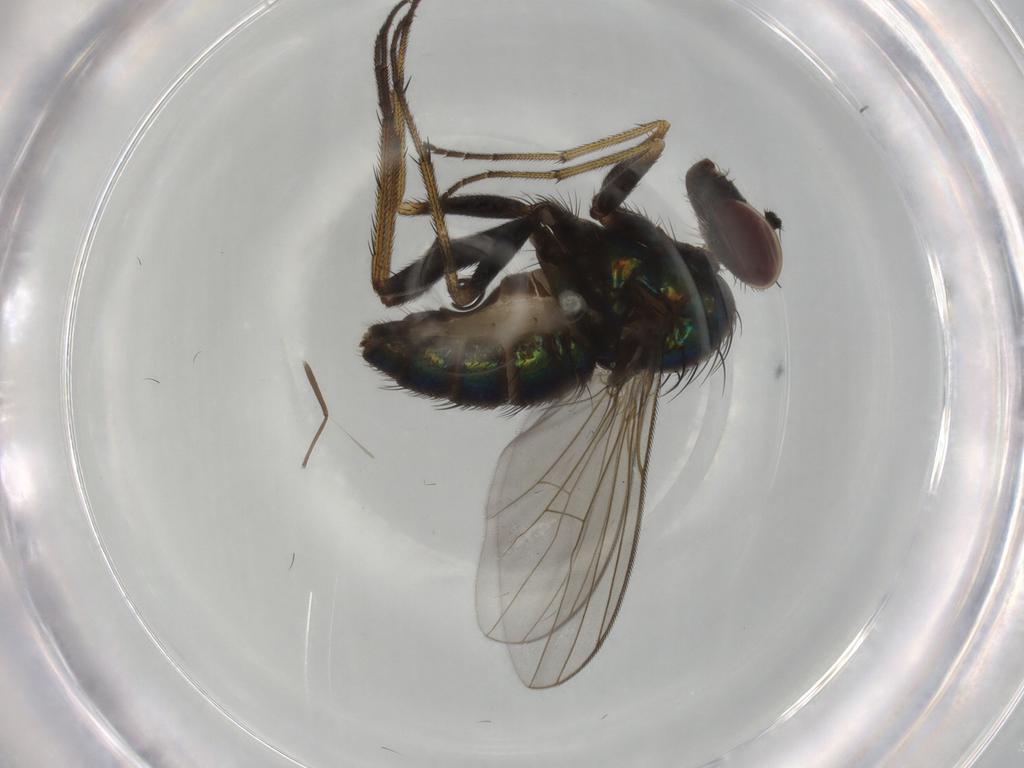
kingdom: Animalia
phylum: Arthropoda
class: Insecta
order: Diptera
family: Dolichopodidae
